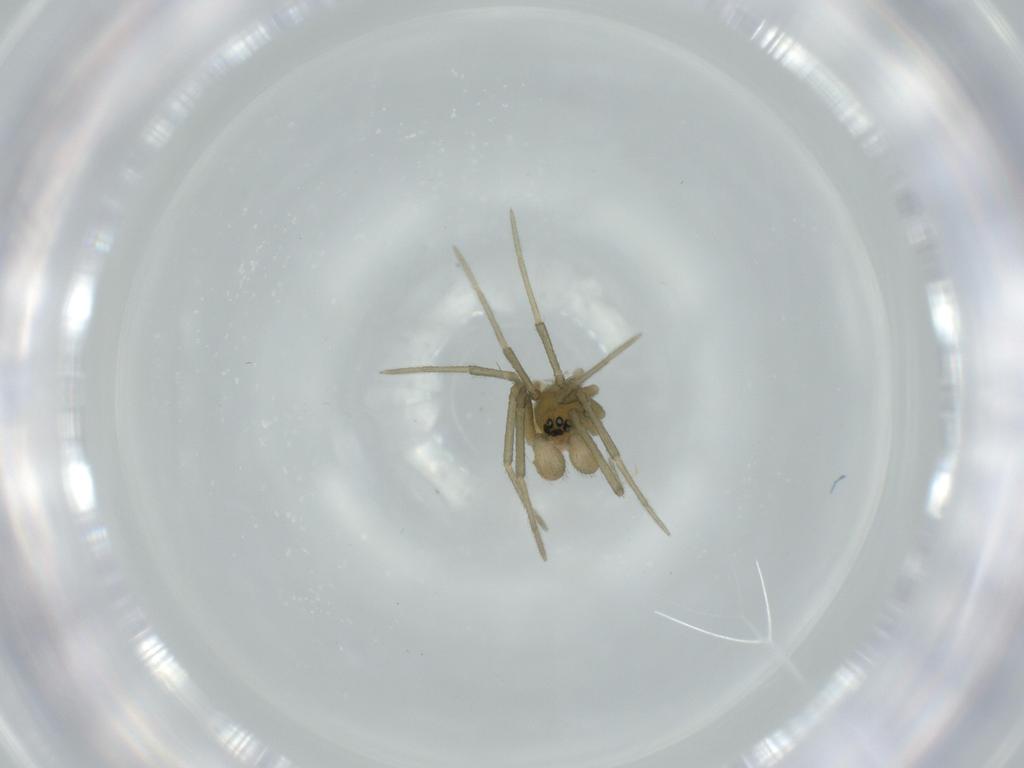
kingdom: Animalia
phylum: Arthropoda
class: Arachnida
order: Araneae
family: Linyphiidae
